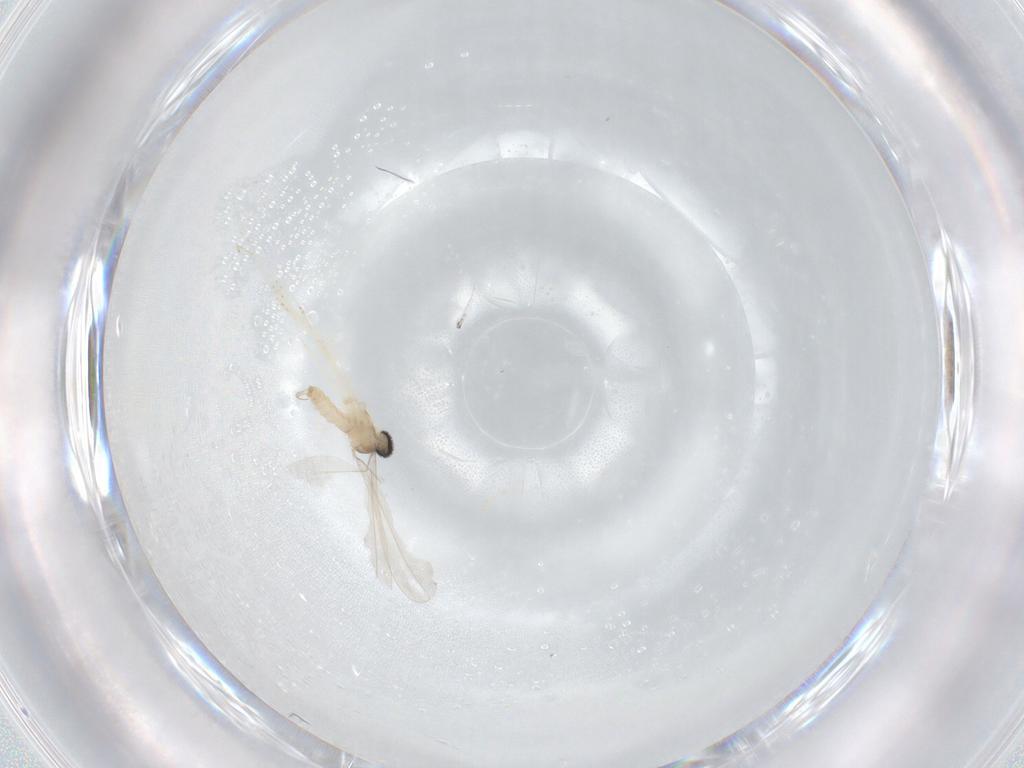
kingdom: Animalia
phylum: Arthropoda
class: Insecta
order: Diptera
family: Cecidomyiidae
